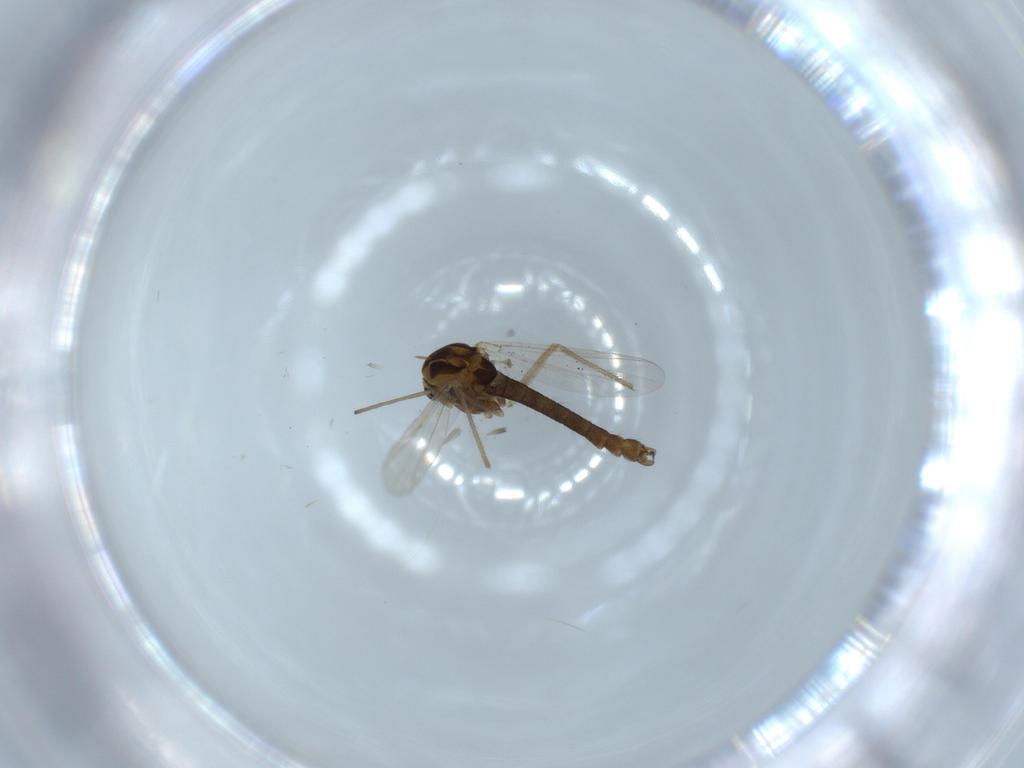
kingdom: Animalia
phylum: Arthropoda
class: Insecta
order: Diptera
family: Chironomidae
